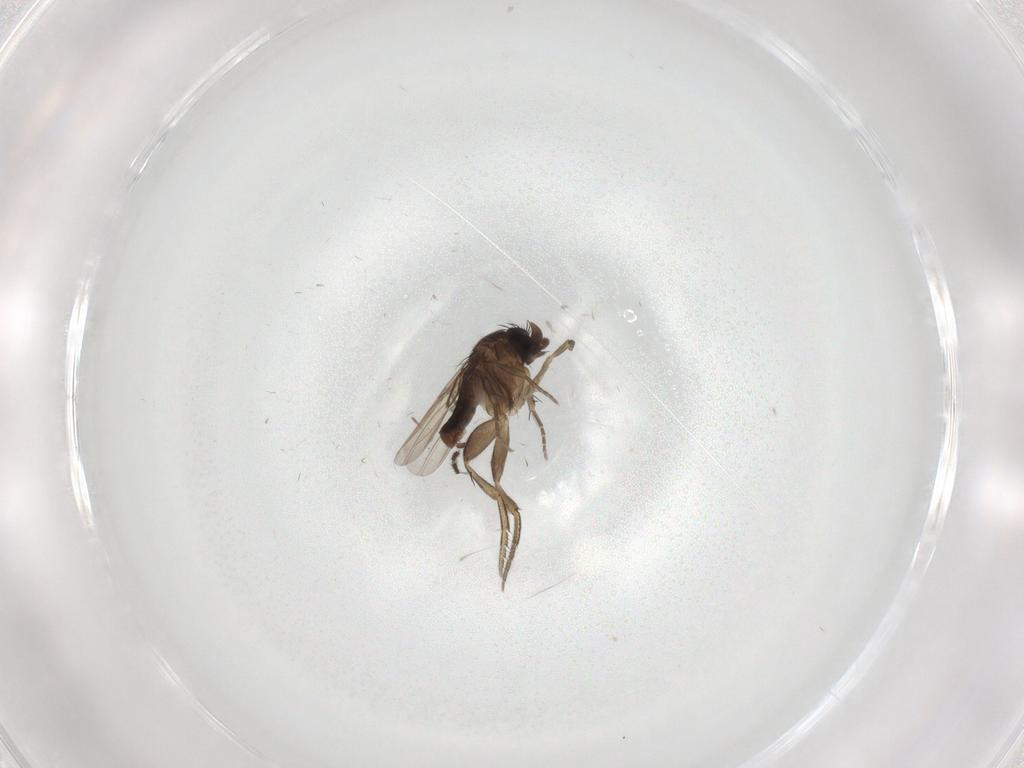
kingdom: Animalia
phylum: Arthropoda
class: Insecta
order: Diptera
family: Phoridae
